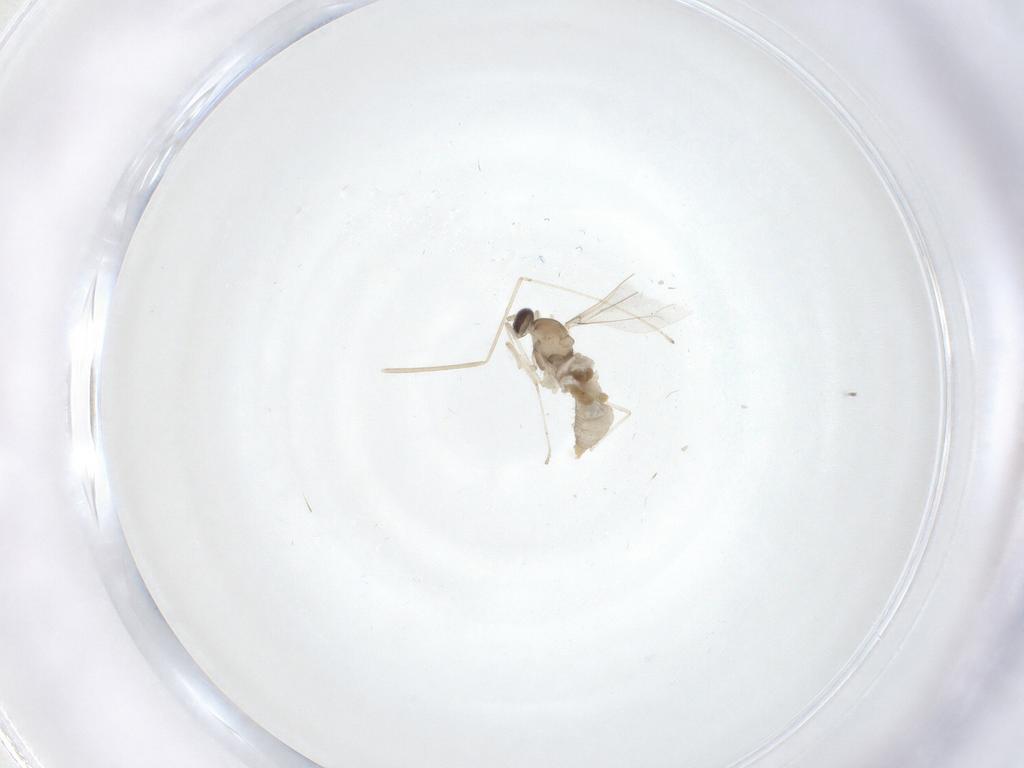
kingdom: Animalia
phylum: Arthropoda
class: Insecta
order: Diptera
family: Cecidomyiidae
